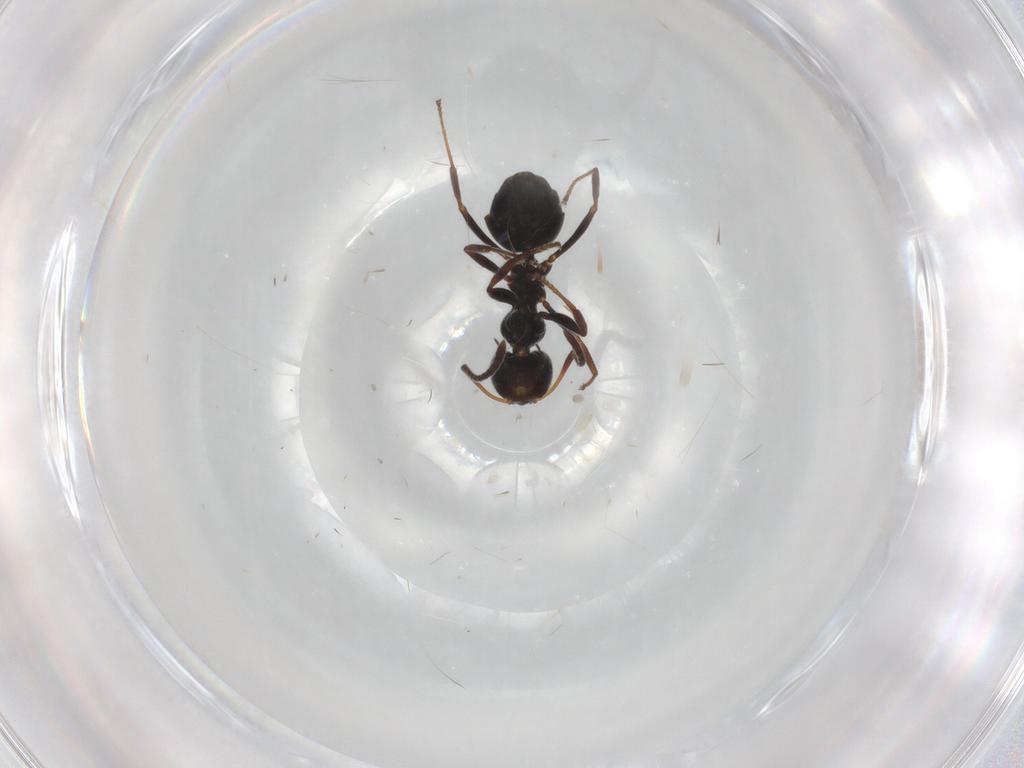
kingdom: Animalia
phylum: Arthropoda
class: Insecta
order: Hymenoptera
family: Formicidae
